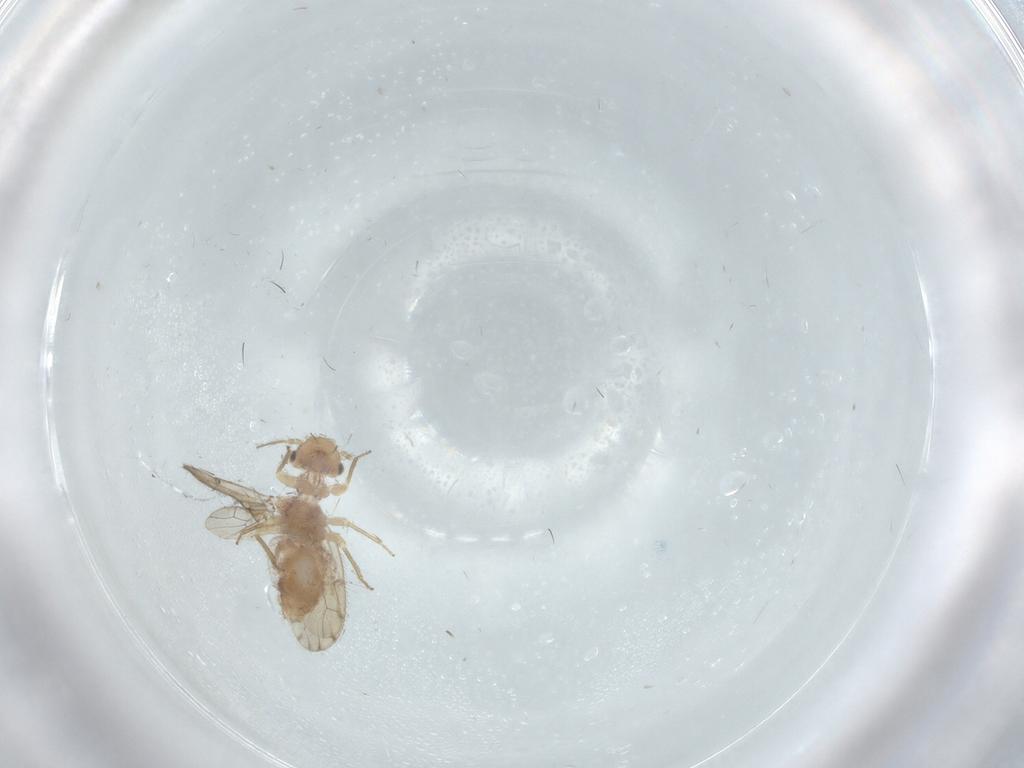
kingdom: Animalia
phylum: Arthropoda
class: Insecta
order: Psocodea
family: Ectopsocidae
